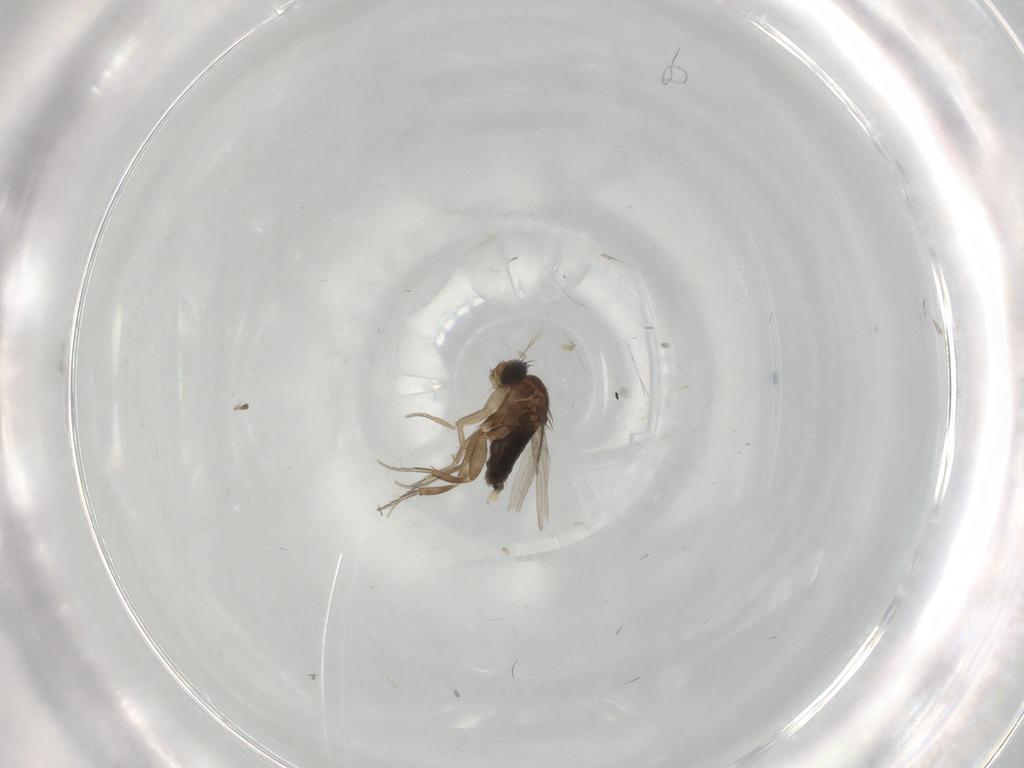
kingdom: Animalia
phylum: Arthropoda
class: Insecta
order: Diptera
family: Phoridae
